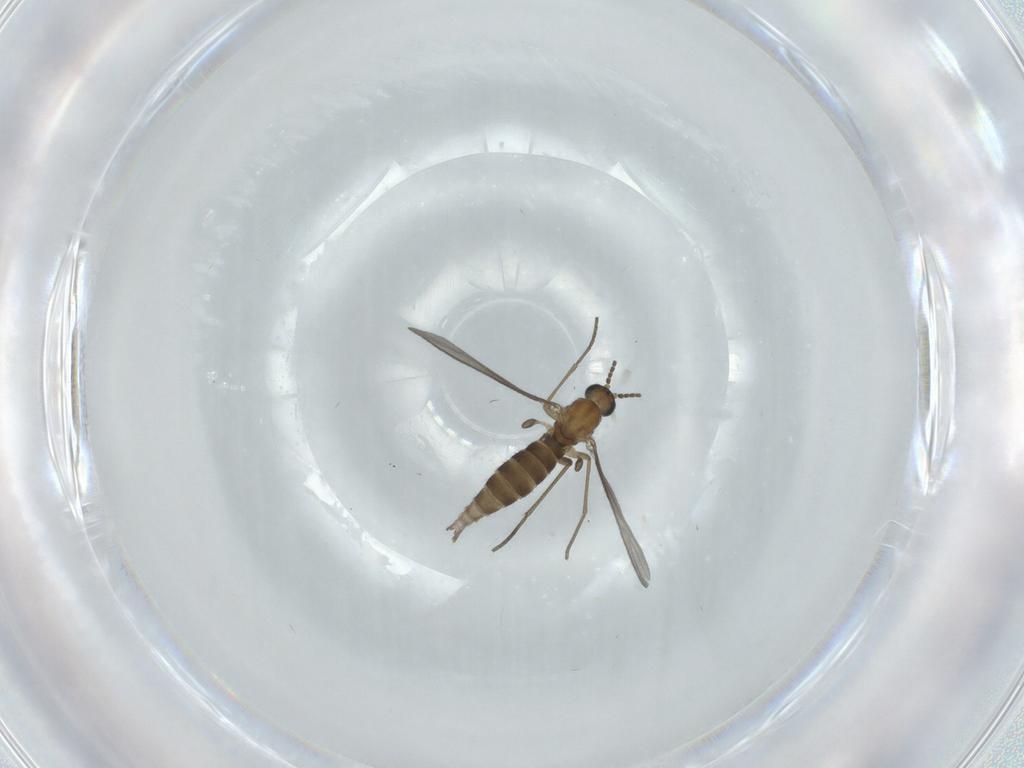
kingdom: Animalia
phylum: Arthropoda
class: Insecta
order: Diptera
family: Sciaridae
